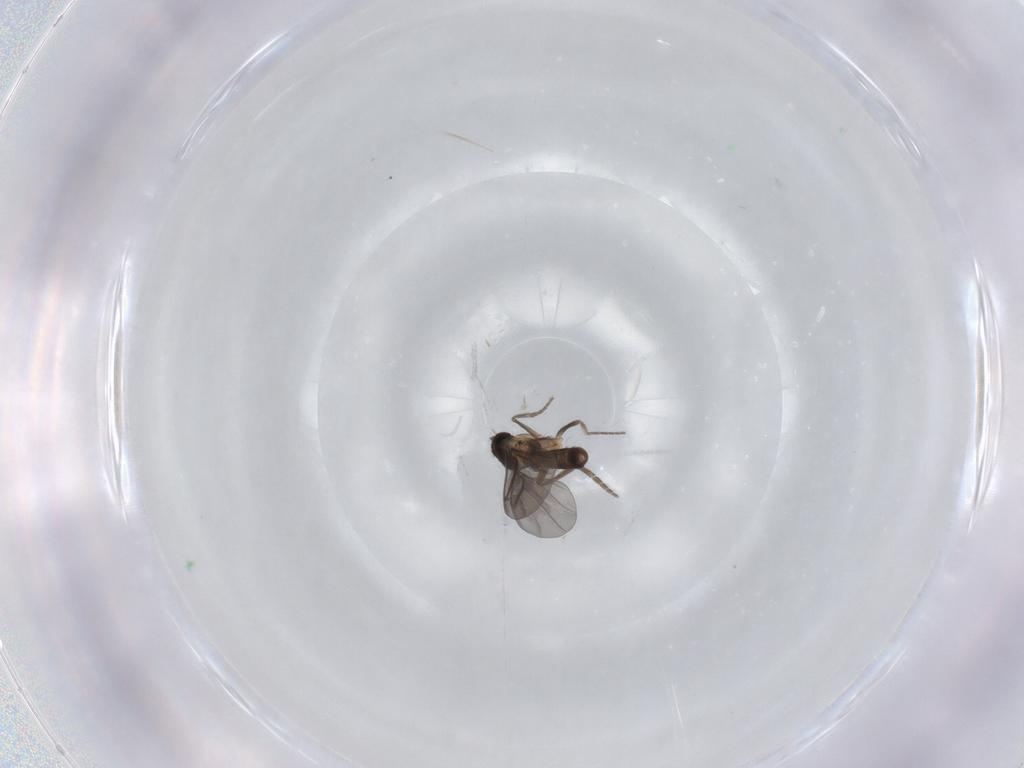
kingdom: Animalia
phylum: Arthropoda
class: Insecta
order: Diptera
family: Phoridae
